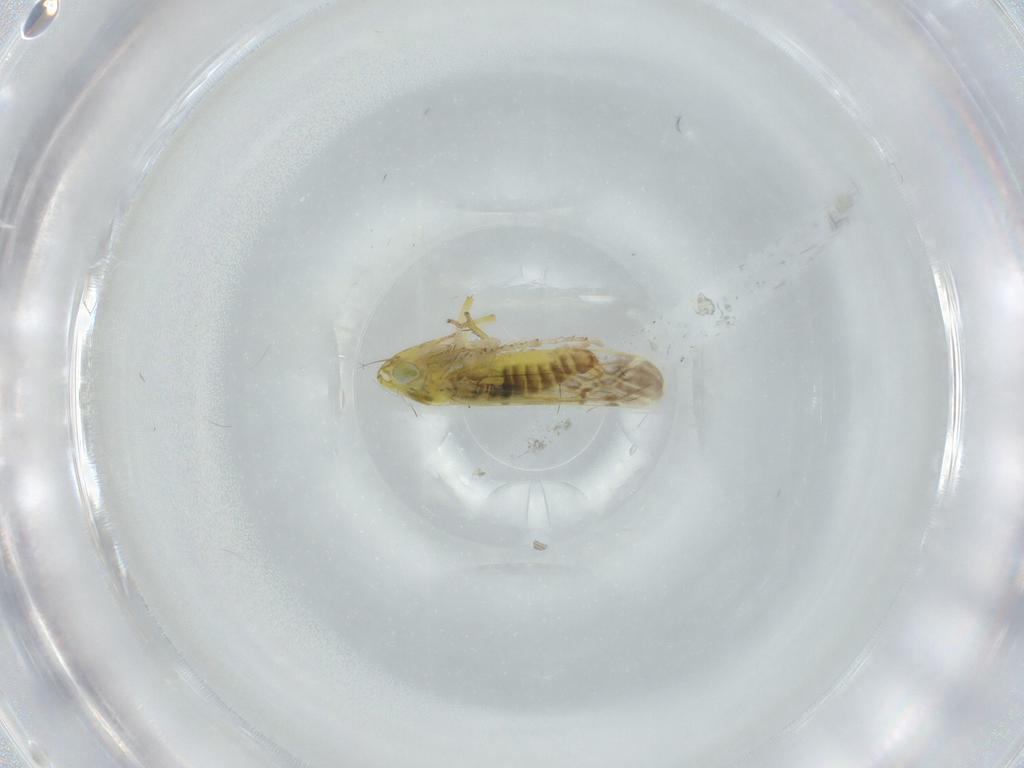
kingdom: Animalia
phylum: Arthropoda
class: Insecta
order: Hemiptera
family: Cicadellidae
